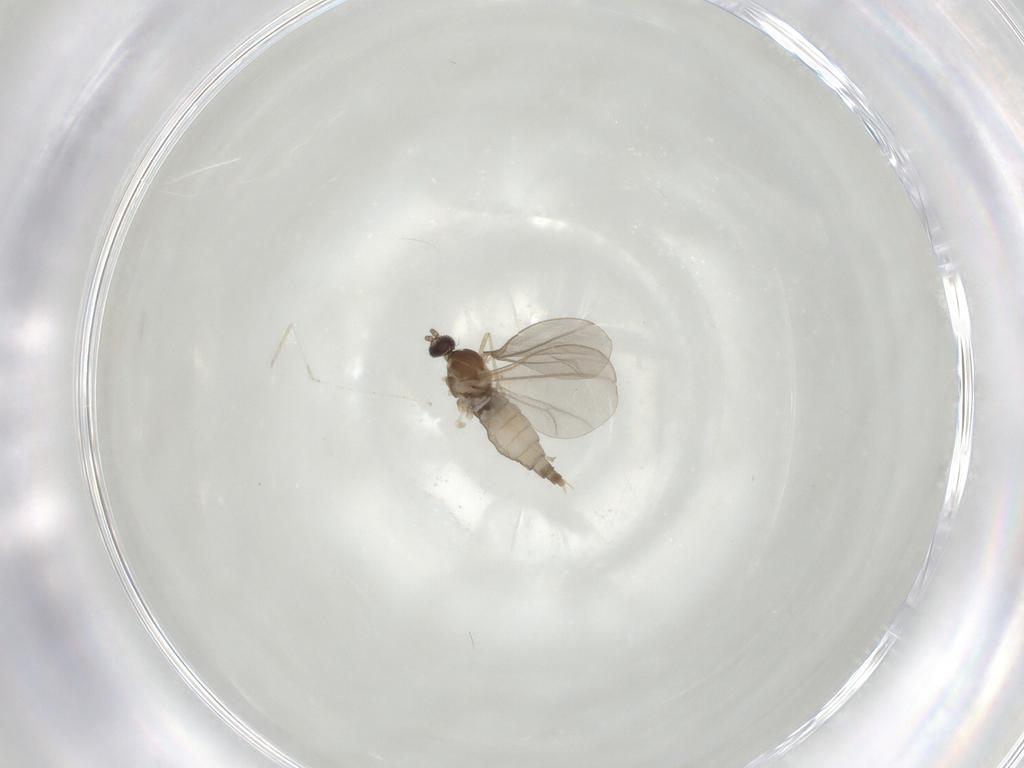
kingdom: Animalia
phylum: Arthropoda
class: Insecta
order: Diptera
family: Cecidomyiidae
